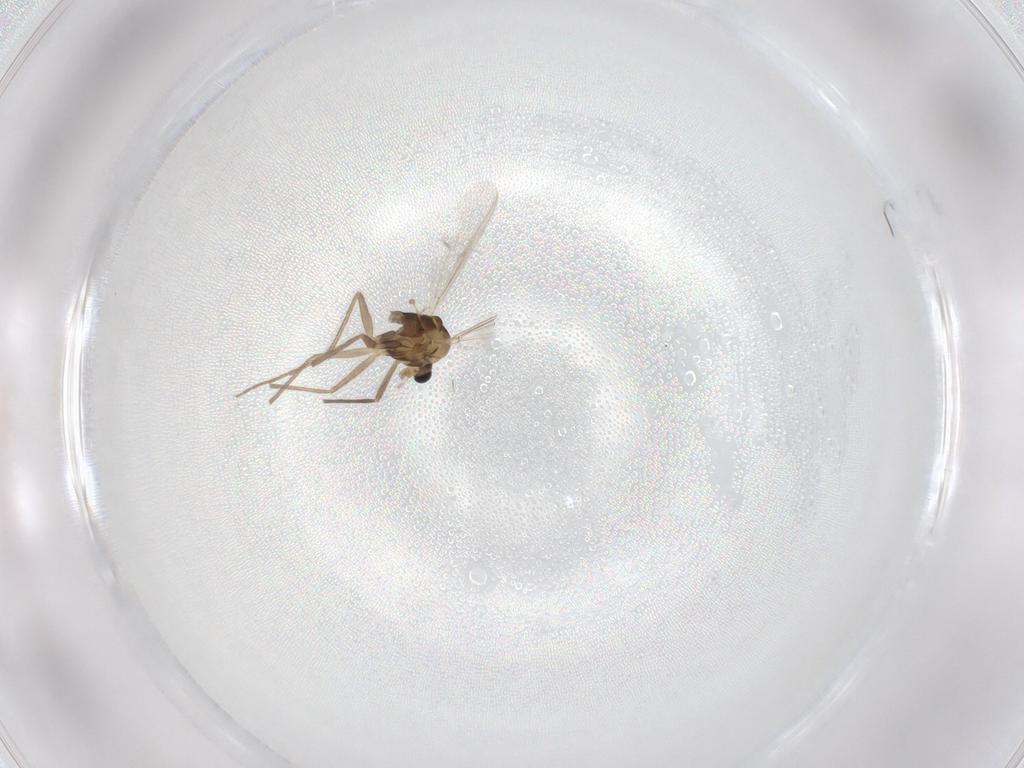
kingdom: Animalia
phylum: Arthropoda
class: Insecta
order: Diptera
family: Chironomidae
